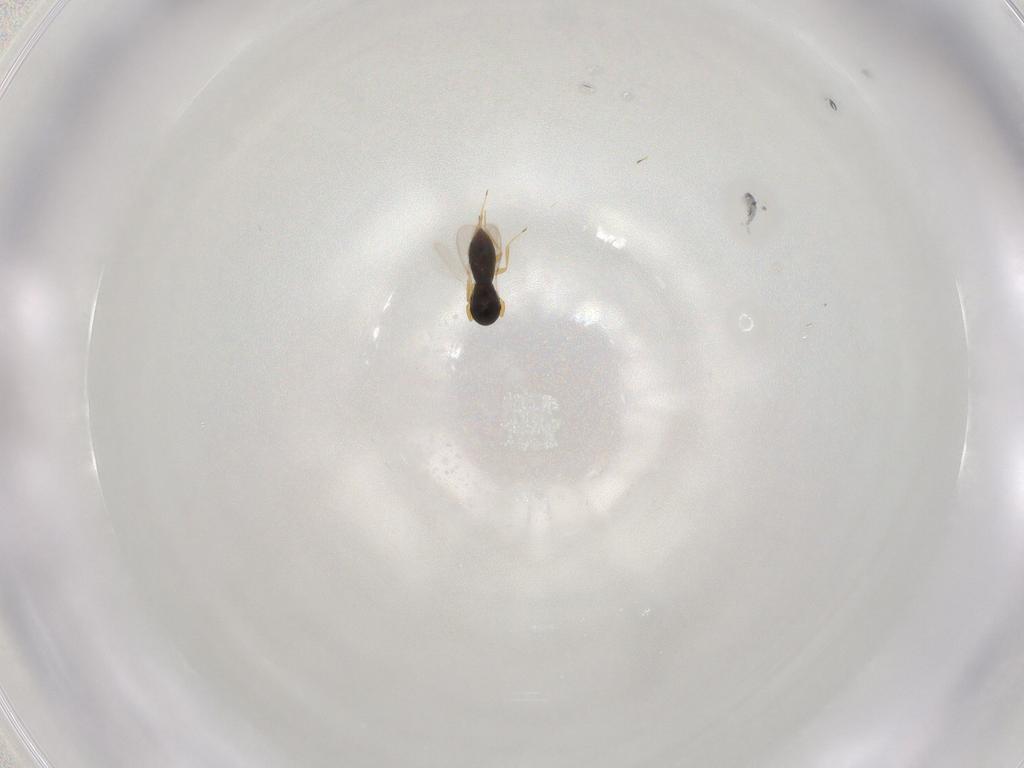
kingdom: Animalia
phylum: Arthropoda
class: Insecta
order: Hymenoptera
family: Scelionidae
